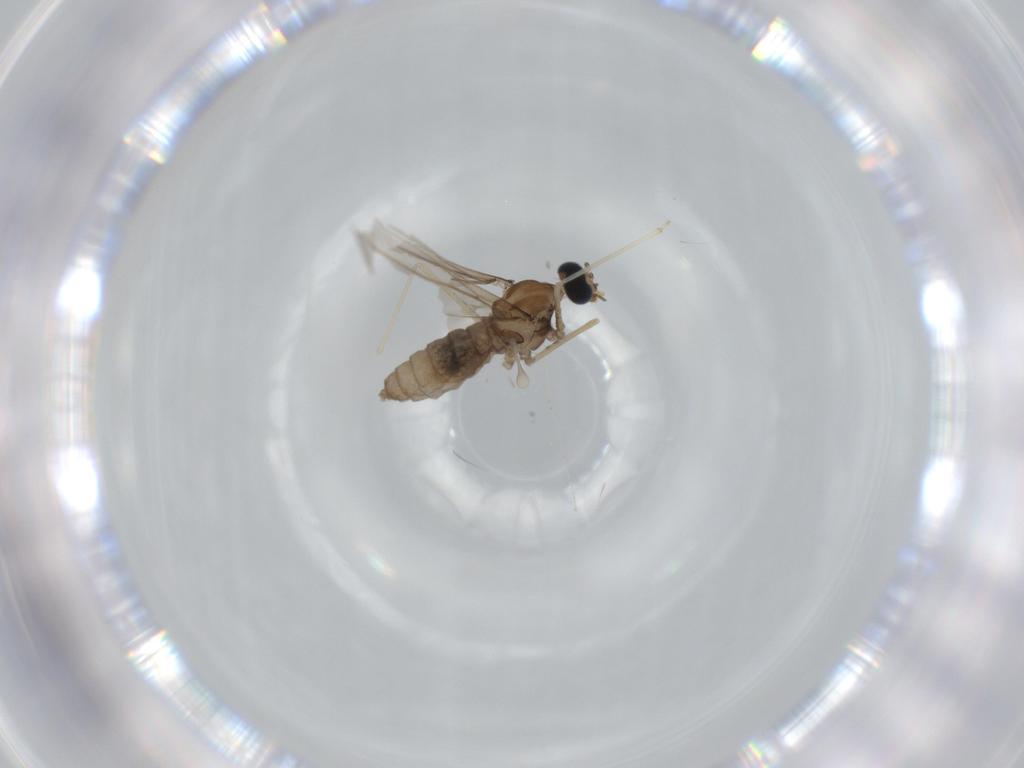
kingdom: Animalia
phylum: Arthropoda
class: Insecta
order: Diptera
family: Cecidomyiidae
